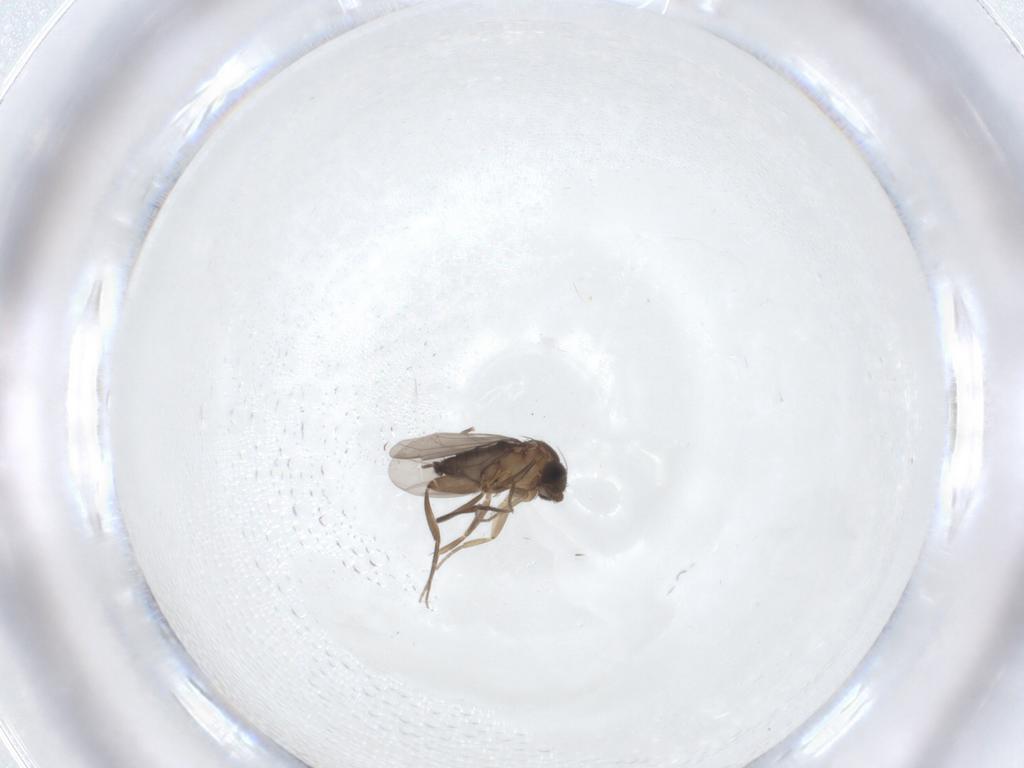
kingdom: Animalia
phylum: Arthropoda
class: Insecta
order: Diptera
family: Phoridae
